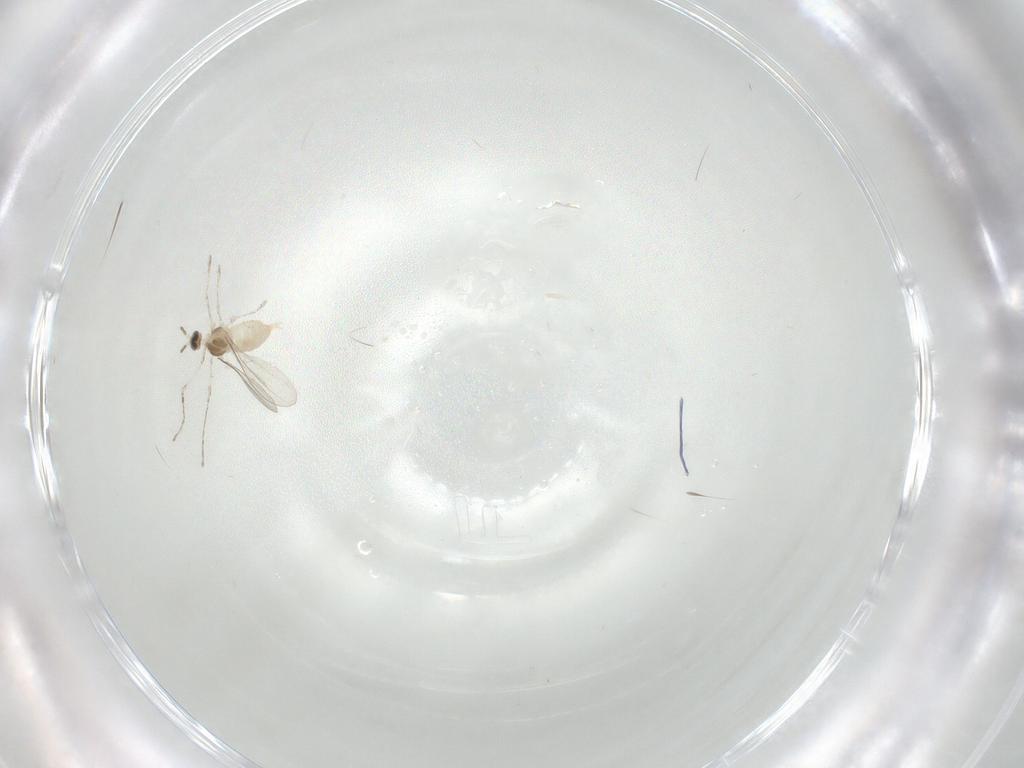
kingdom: Animalia
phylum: Arthropoda
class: Insecta
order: Diptera
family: Cecidomyiidae
